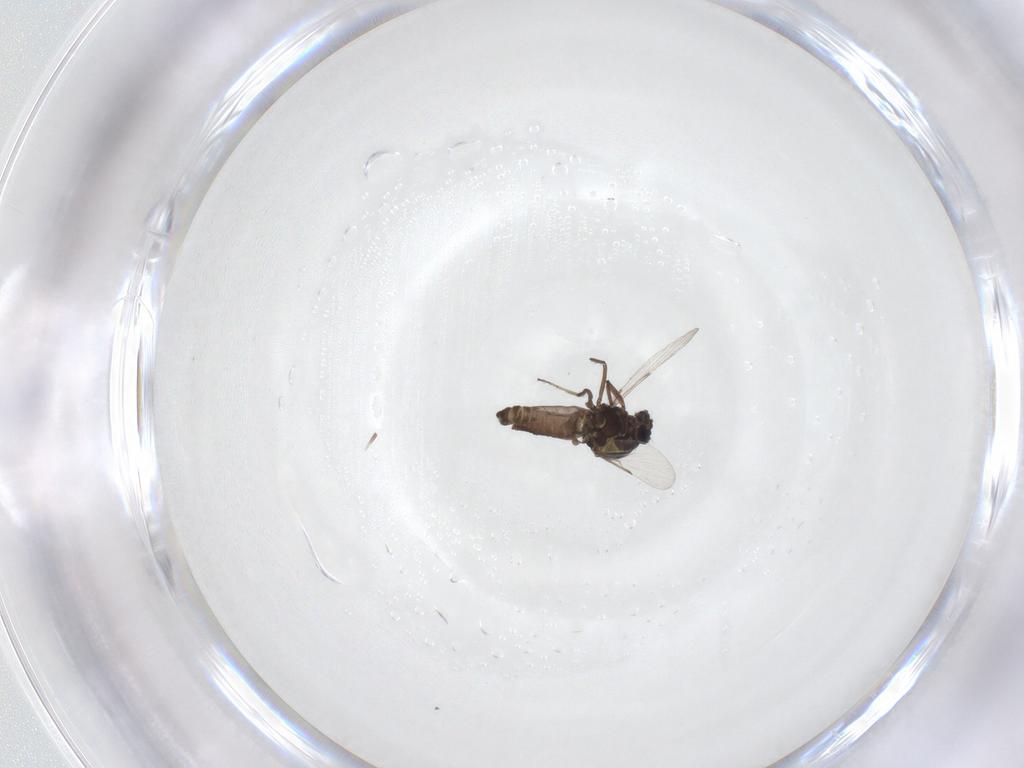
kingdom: Animalia
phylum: Arthropoda
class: Insecta
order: Diptera
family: Ceratopogonidae
